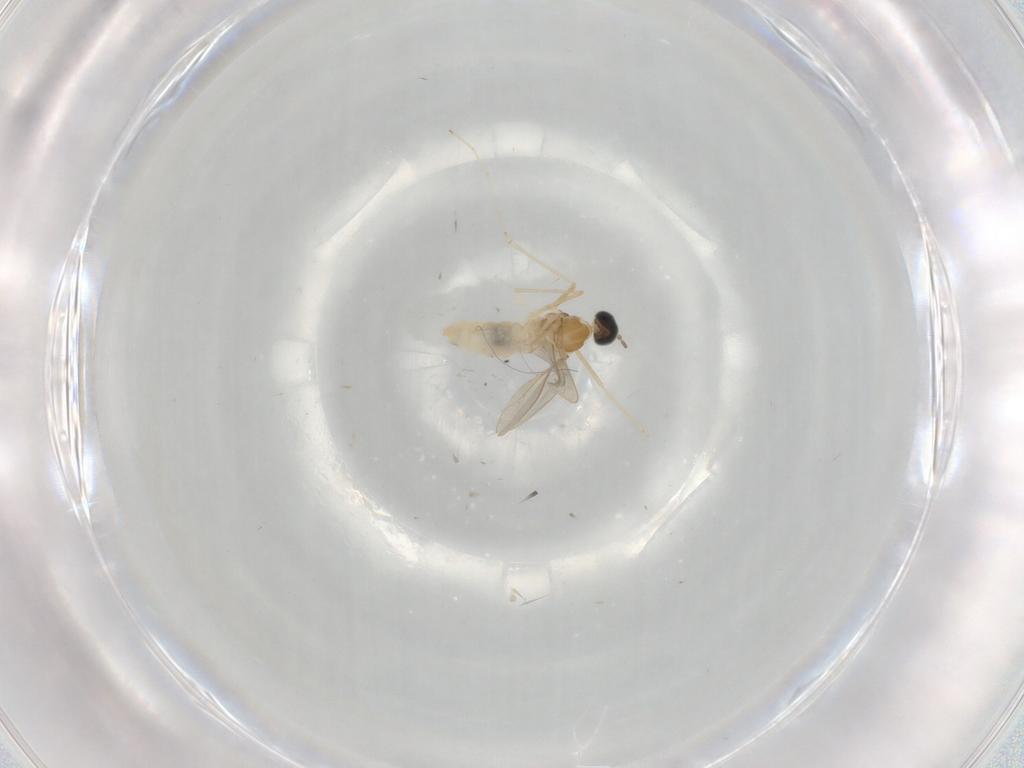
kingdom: Animalia
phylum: Arthropoda
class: Insecta
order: Diptera
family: Cecidomyiidae
